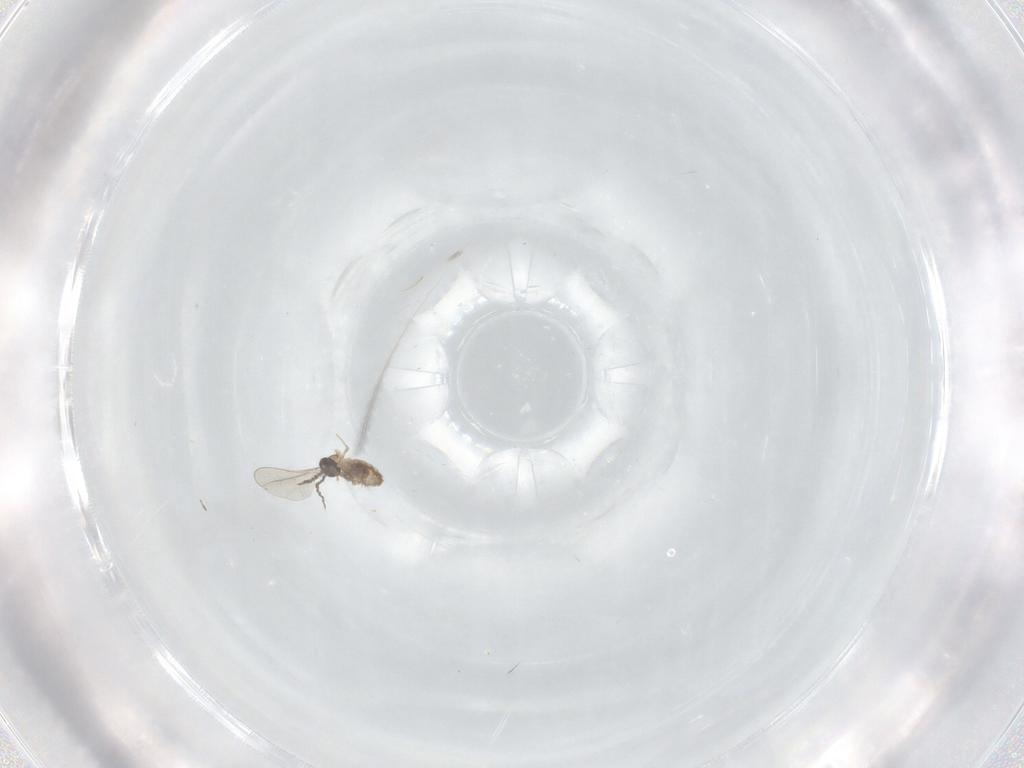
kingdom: Animalia
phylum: Arthropoda
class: Insecta
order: Diptera
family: Cecidomyiidae
